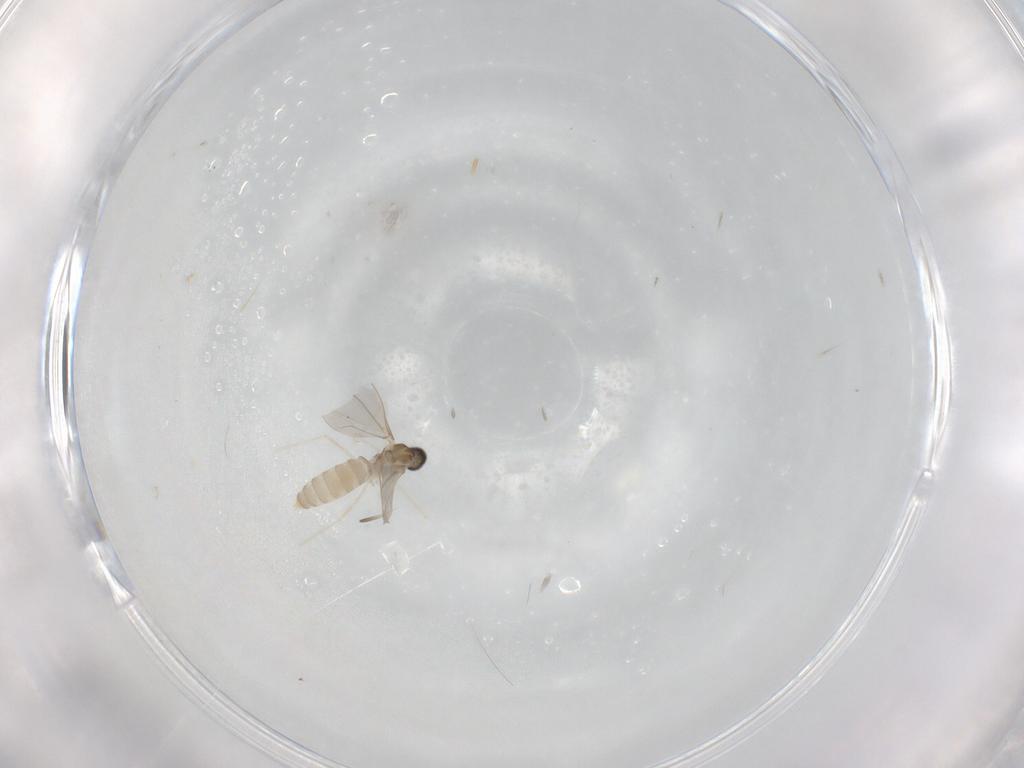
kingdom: Animalia
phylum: Arthropoda
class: Insecta
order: Diptera
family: Cecidomyiidae
